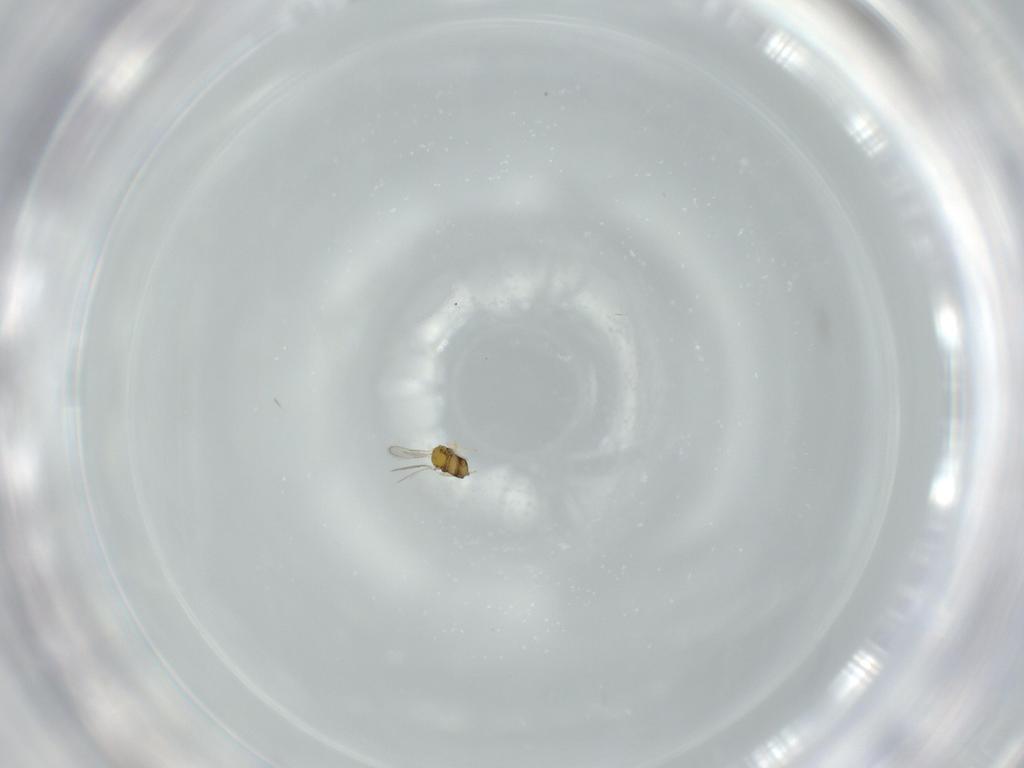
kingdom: Animalia
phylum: Arthropoda
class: Insecta
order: Hymenoptera
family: Aphelinidae
